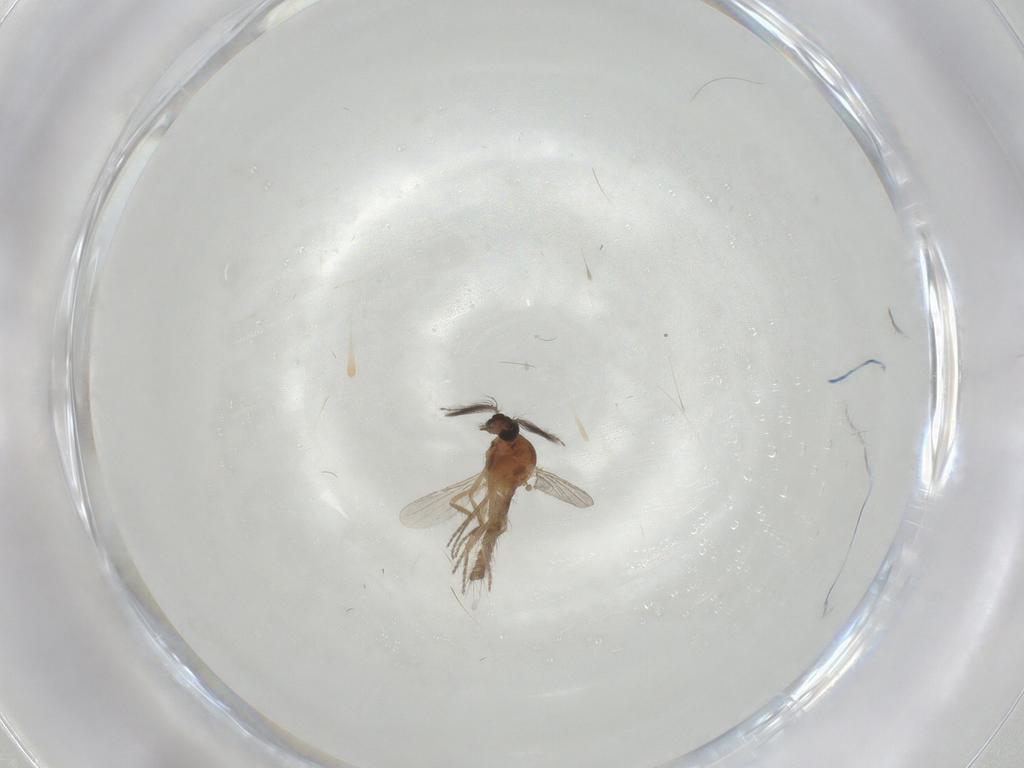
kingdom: Animalia
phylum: Arthropoda
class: Insecta
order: Diptera
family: Ceratopogonidae
